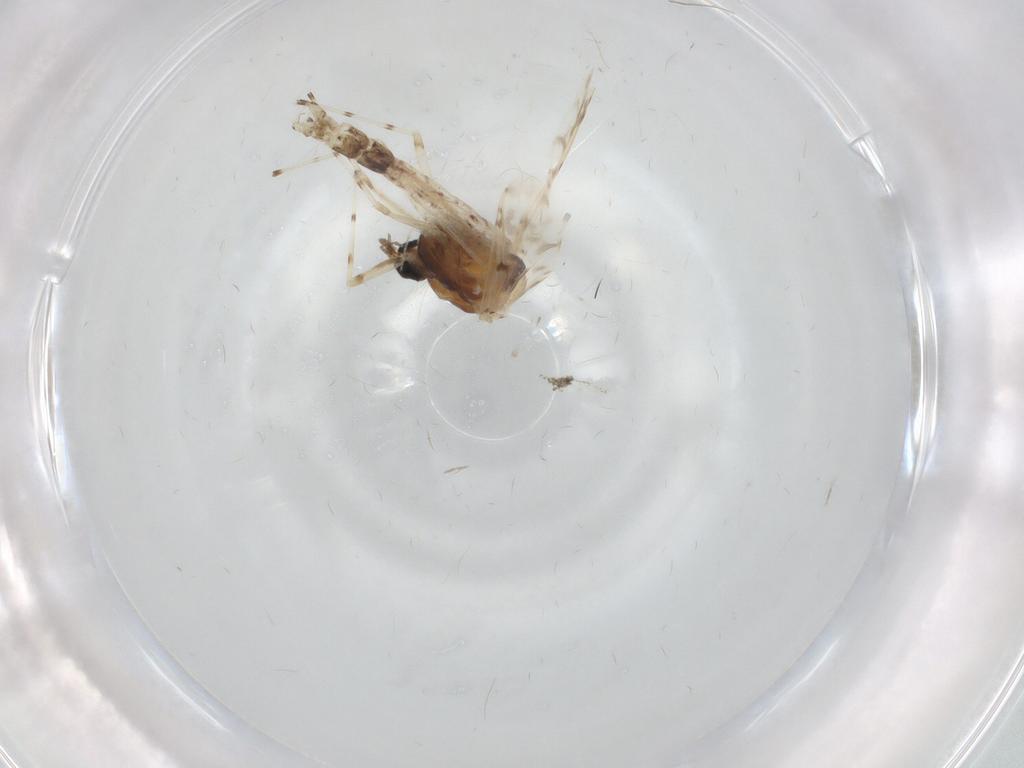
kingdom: Animalia
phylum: Arthropoda
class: Insecta
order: Diptera
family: Chironomidae
